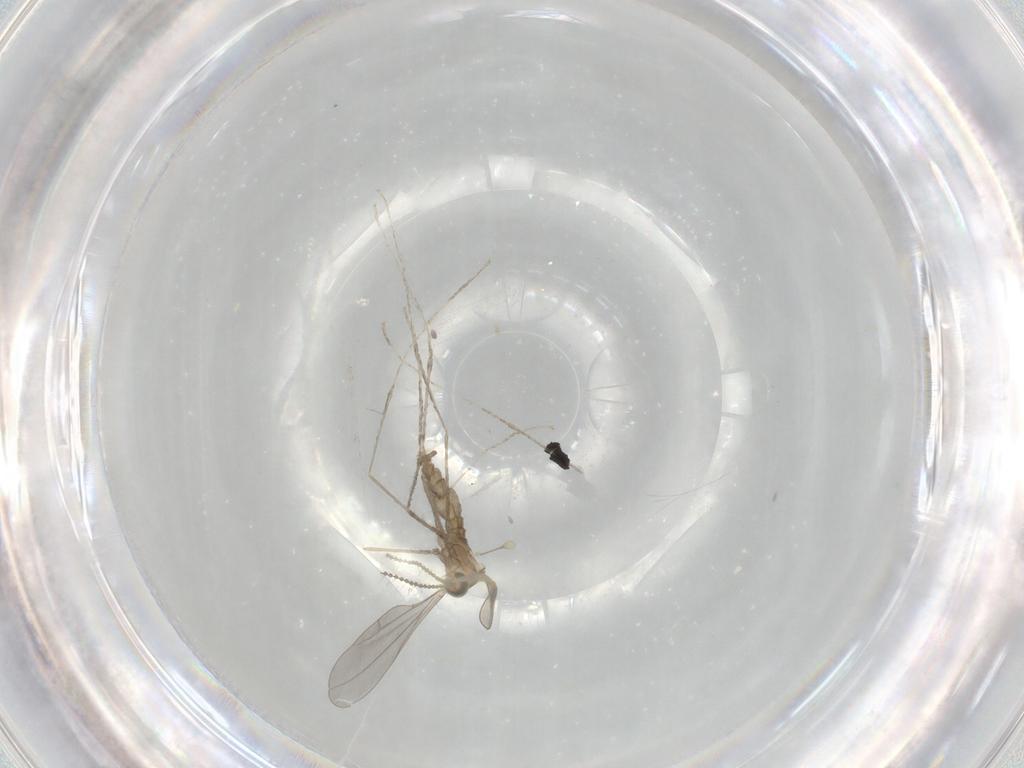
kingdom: Animalia
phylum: Arthropoda
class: Insecta
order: Diptera
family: Cecidomyiidae
